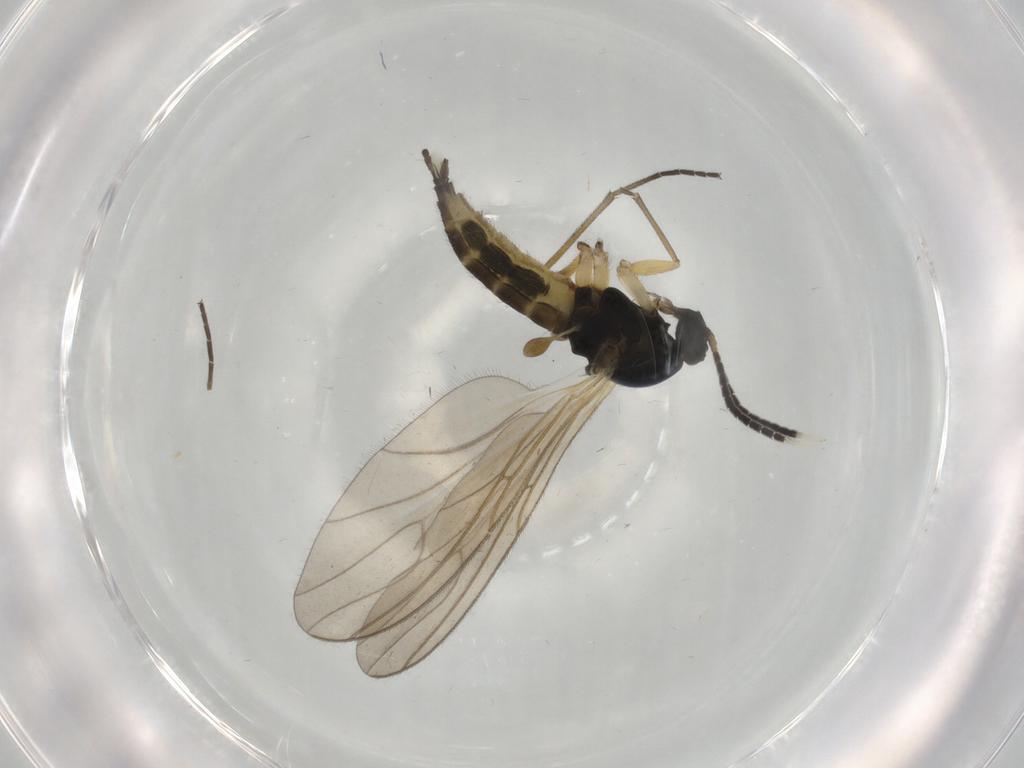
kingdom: Animalia
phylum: Arthropoda
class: Insecta
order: Diptera
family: Sciaridae
